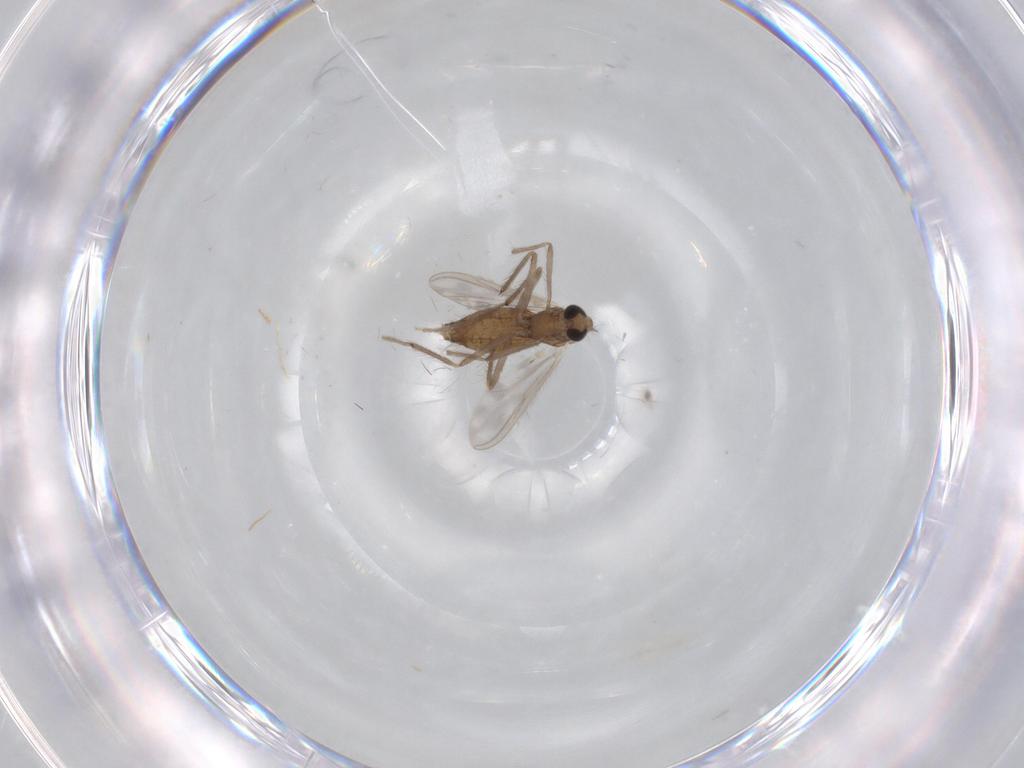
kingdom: Animalia
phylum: Arthropoda
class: Insecta
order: Diptera
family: Chironomidae
